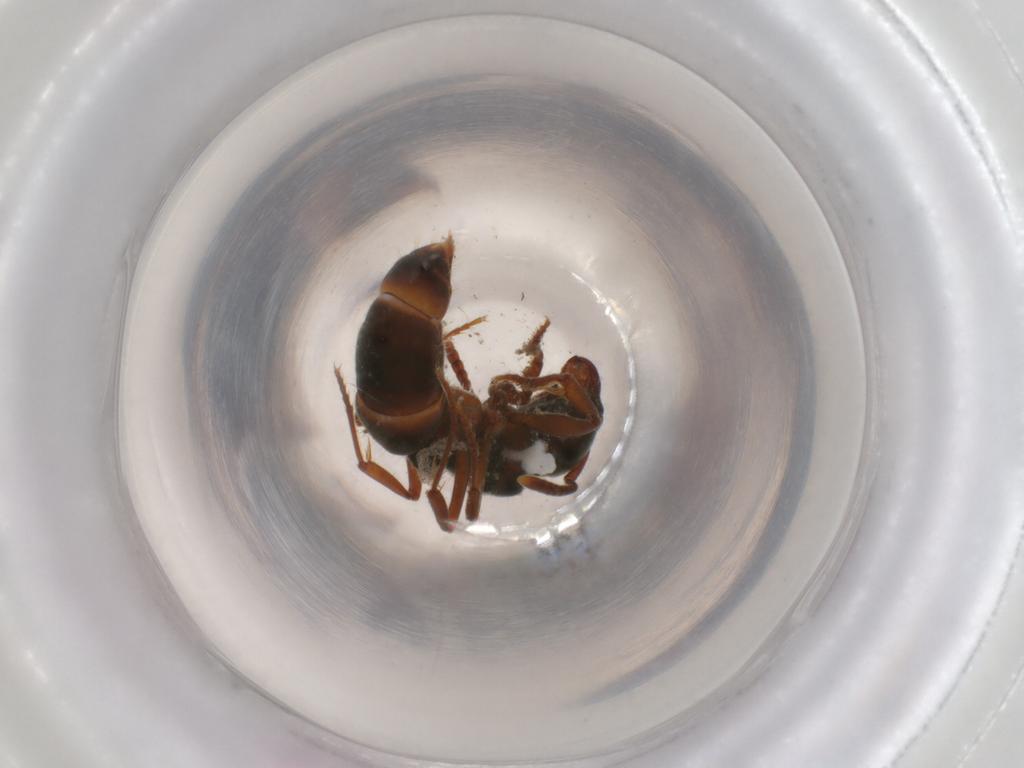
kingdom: Animalia
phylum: Arthropoda
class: Insecta
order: Hymenoptera
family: Formicidae
